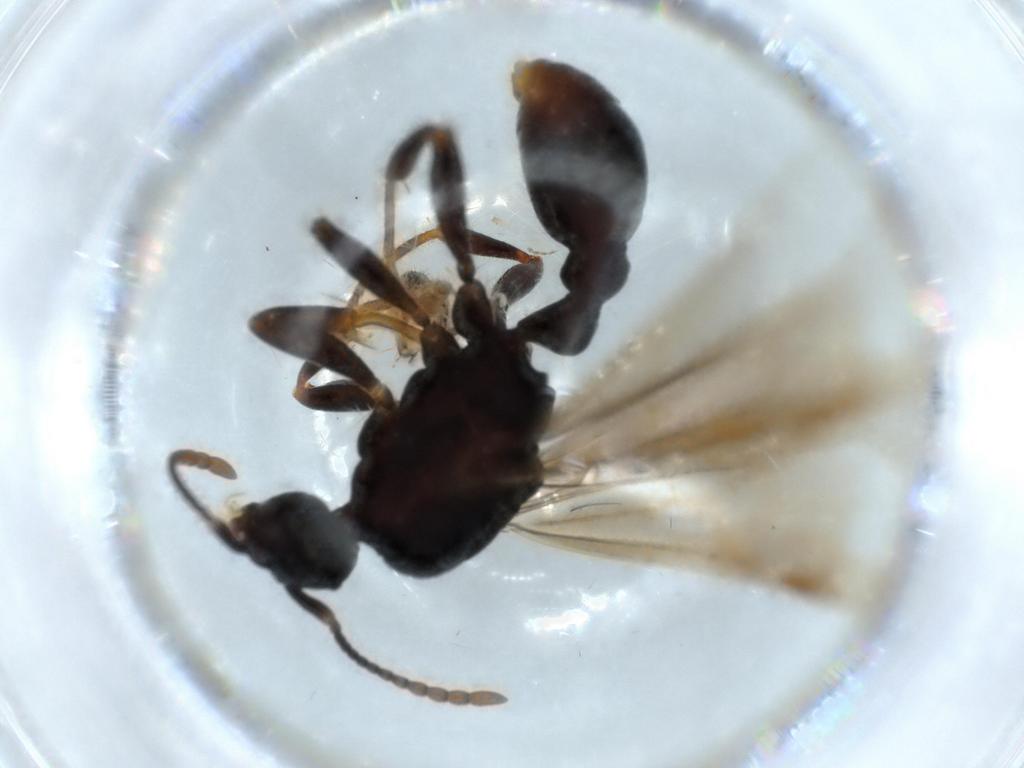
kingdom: Animalia
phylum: Arthropoda
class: Insecta
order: Hymenoptera
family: Formicidae
